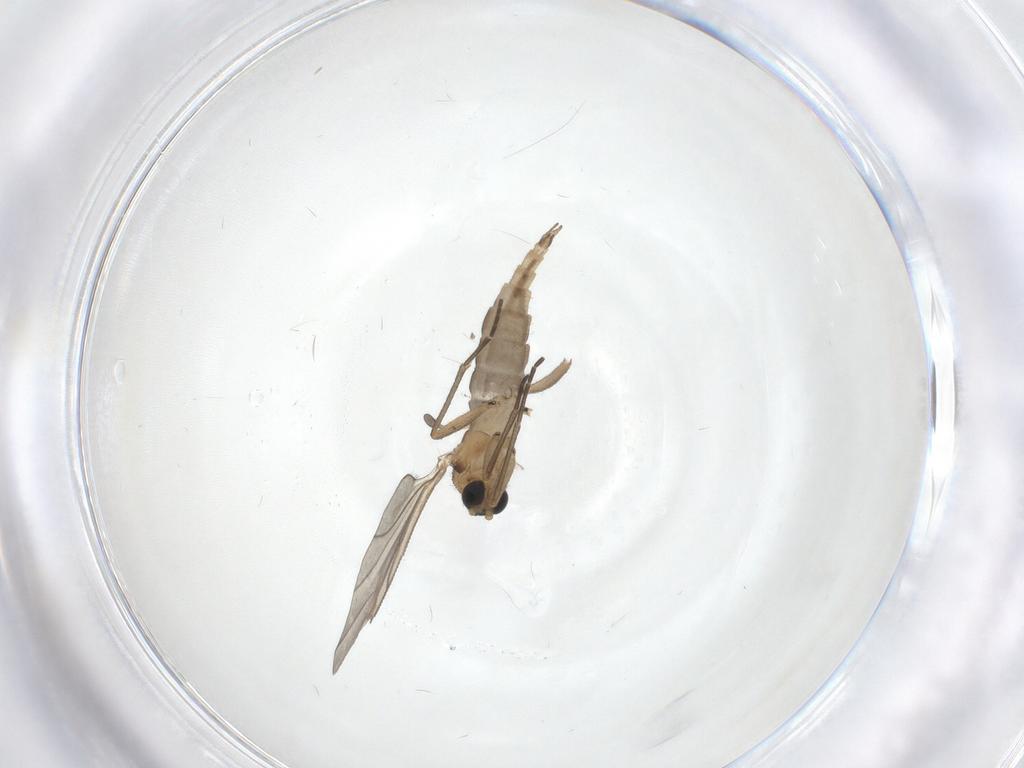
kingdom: Animalia
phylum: Arthropoda
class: Insecta
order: Diptera
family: Sciaridae
